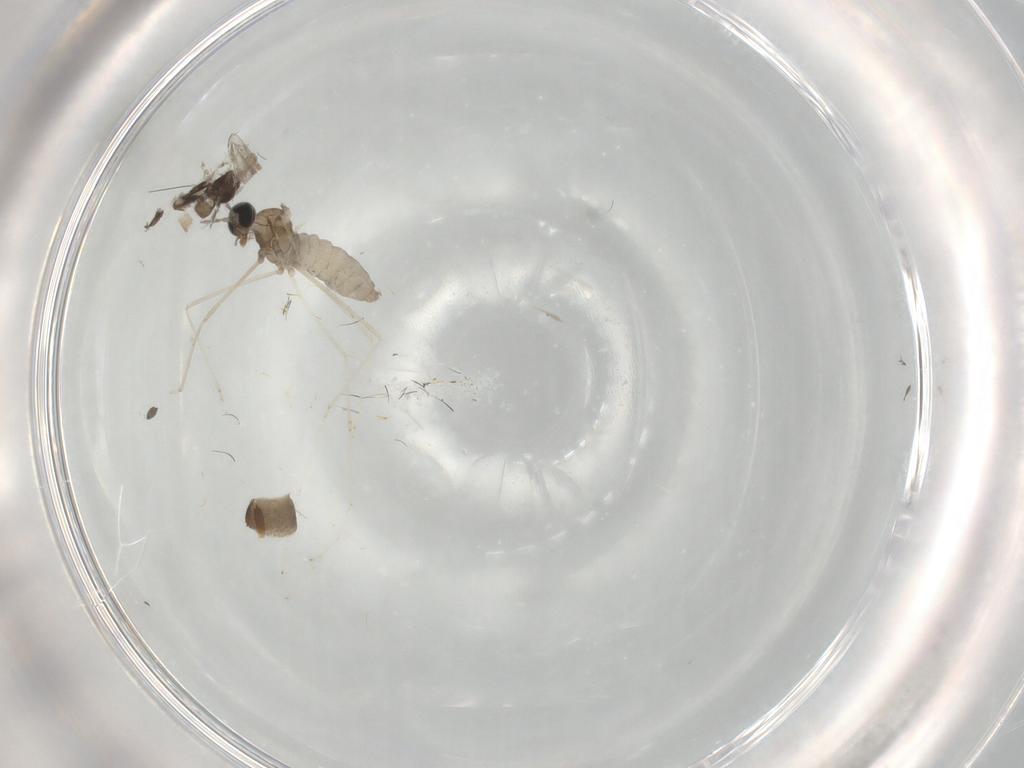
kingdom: Animalia
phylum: Arthropoda
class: Insecta
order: Diptera
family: Cecidomyiidae
